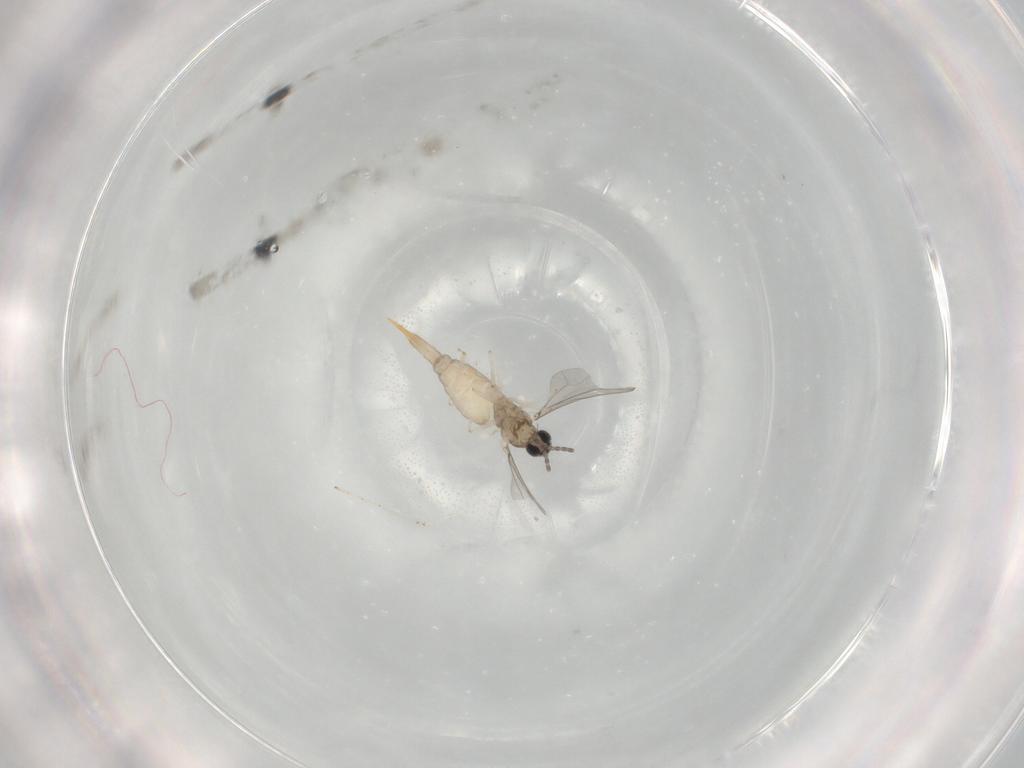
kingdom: Animalia
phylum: Arthropoda
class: Insecta
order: Diptera
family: Cecidomyiidae
